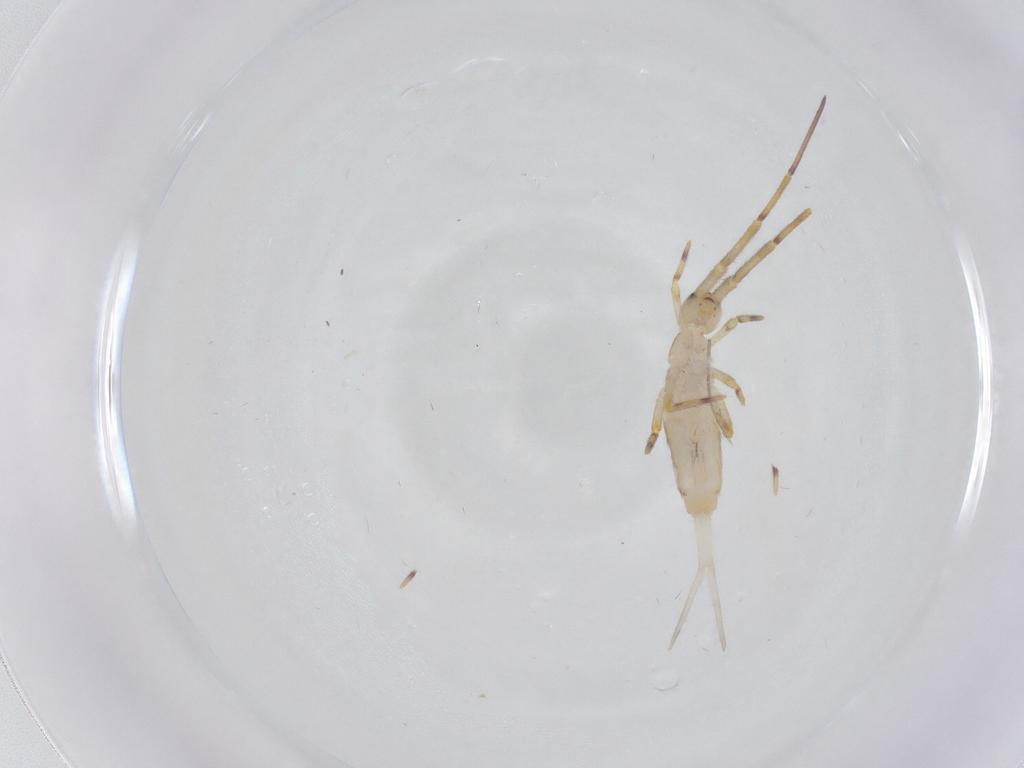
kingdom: Animalia
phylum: Arthropoda
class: Collembola
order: Entomobryomorpha
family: Entomobryidae
